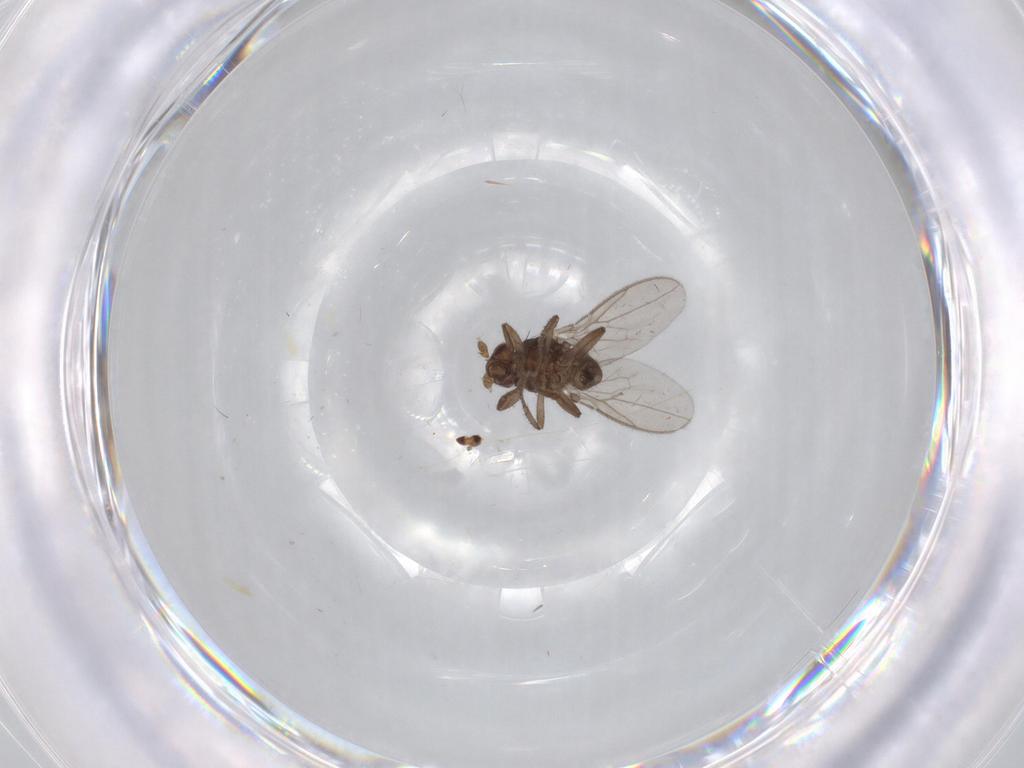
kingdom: Animalia
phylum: Arthropoda
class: Insecta
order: Diptera
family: Sphaeroceridae
